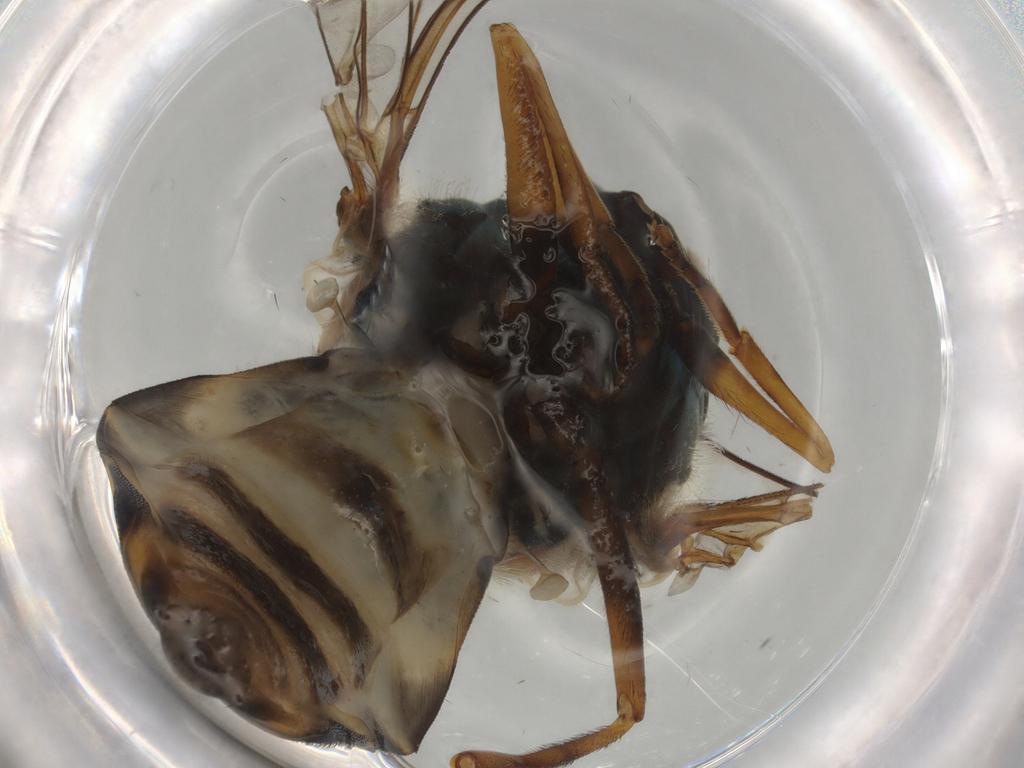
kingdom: Animalia
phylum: Arthropoda
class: Insecta
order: Diptera
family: Syrphidae
